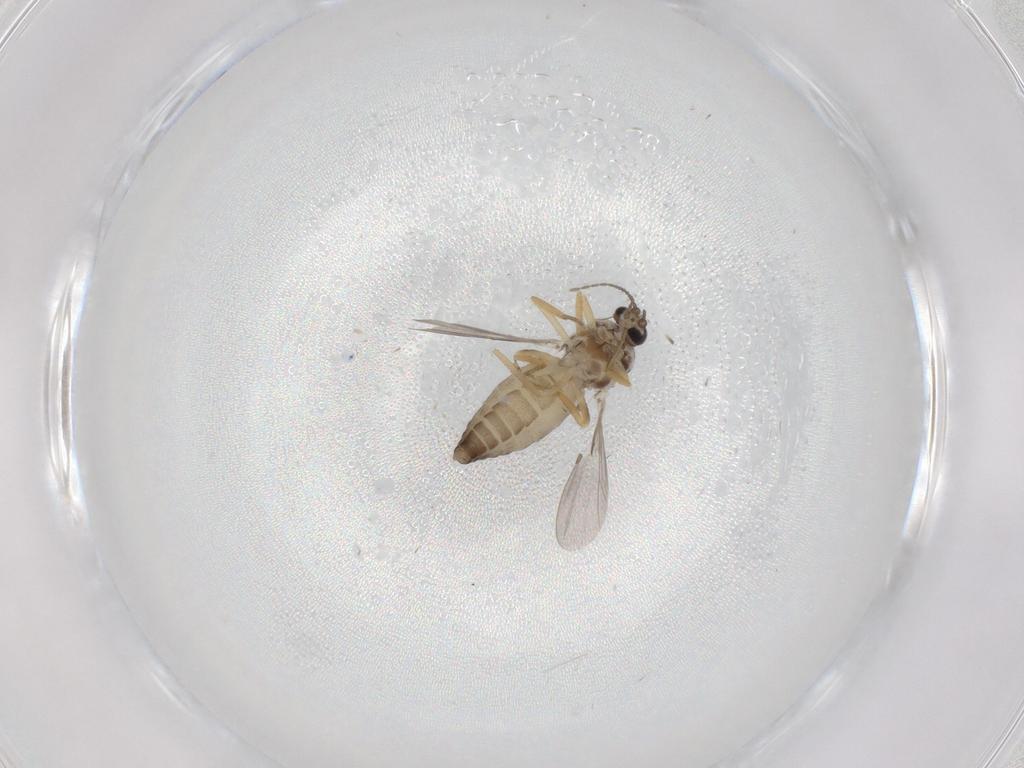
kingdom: Animalia
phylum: Arthropoda
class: Insecta
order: Diptera
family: Ceratopogonidae
